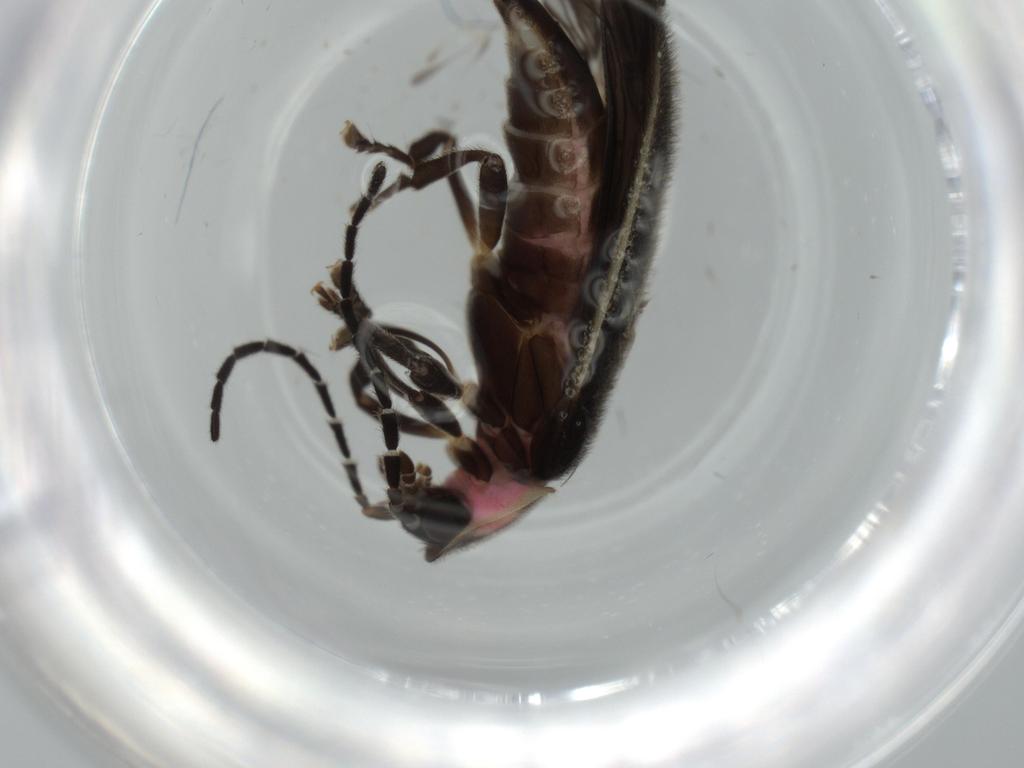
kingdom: Animalia
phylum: Arthropoda
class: Insecta
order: Coleoptera
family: Lampyridae
